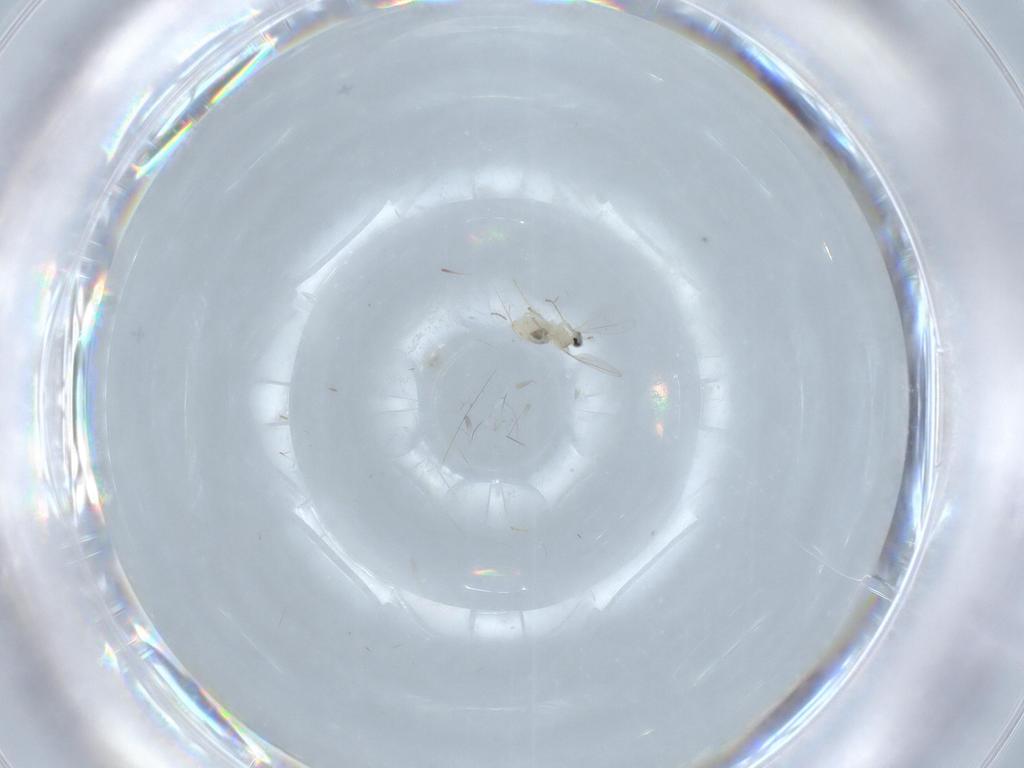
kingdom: Animalia
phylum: Arthropoda
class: Insecta
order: Diptera
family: Cecidomyiidae
